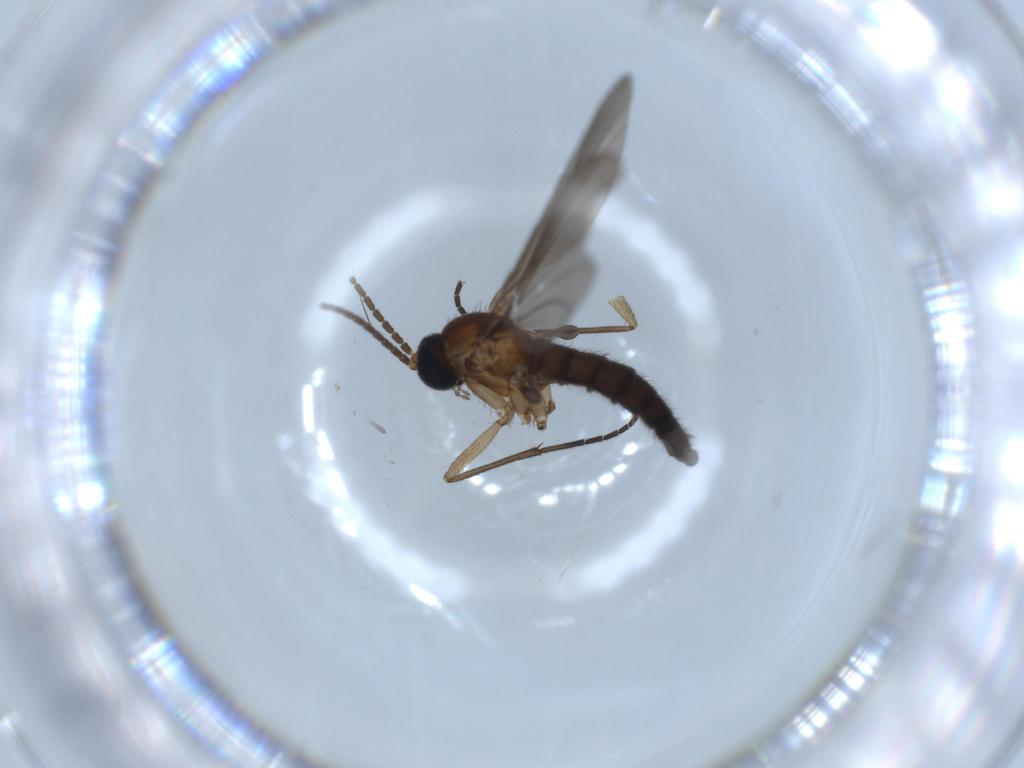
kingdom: Animalia
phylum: Arthropoda
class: Insecta
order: Diptera
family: Sciaridae
